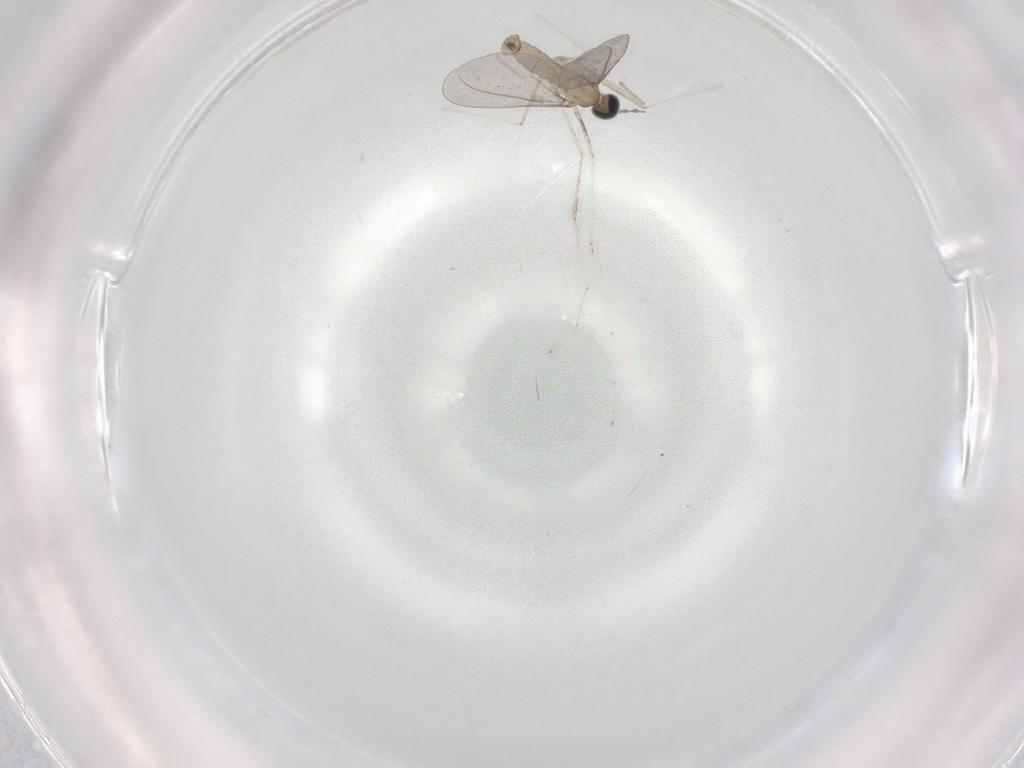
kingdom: Animalia
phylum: Arthropoda
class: Insecta
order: Diptera
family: Cecidomyiidae
